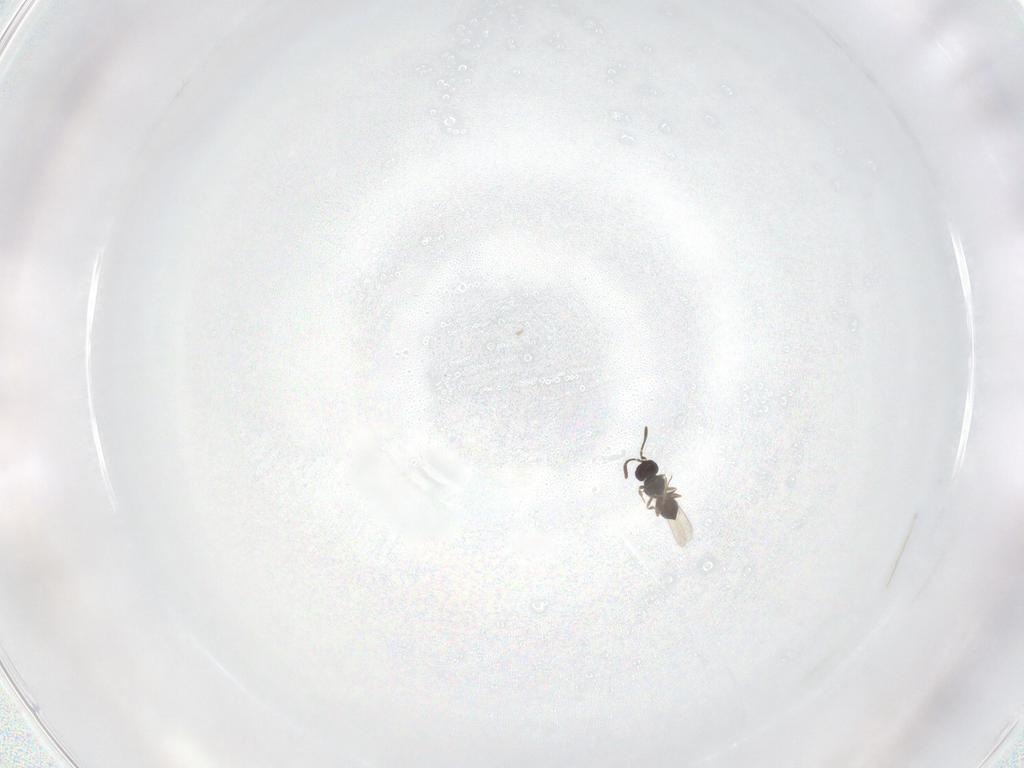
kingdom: Animalia
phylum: Arthropoda
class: Insecta
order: Hymenoptera
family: Scelionidae
